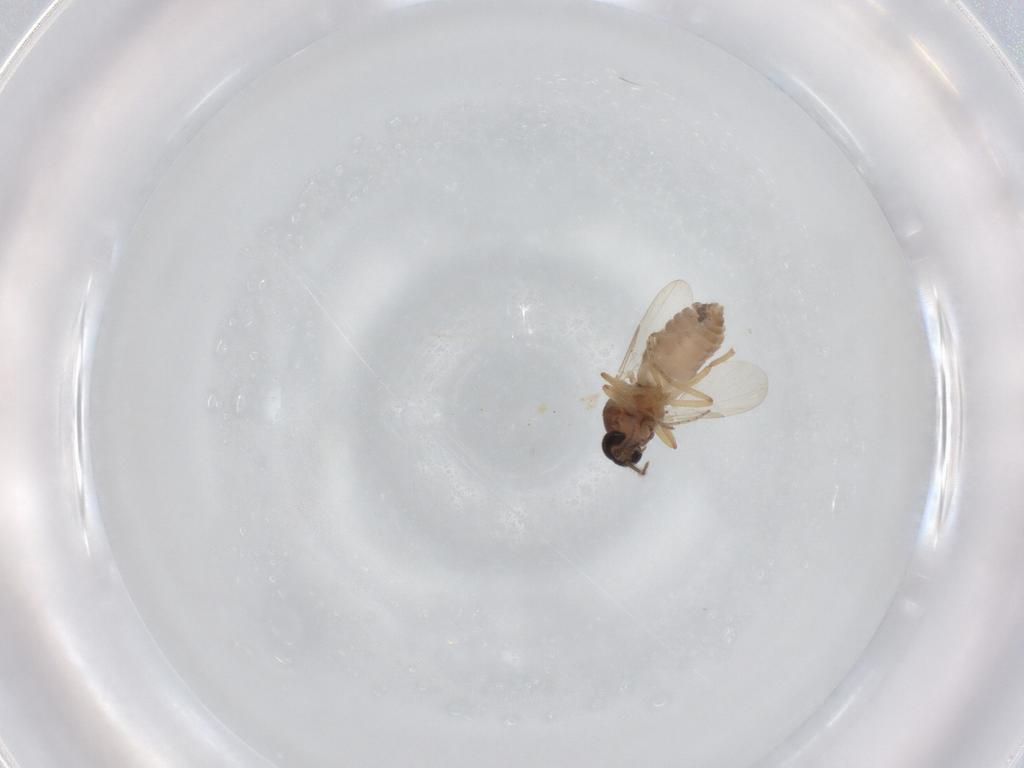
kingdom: Animalia
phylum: Arthropoda
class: Insecta
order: Diptera
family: Ceratopogonidae
